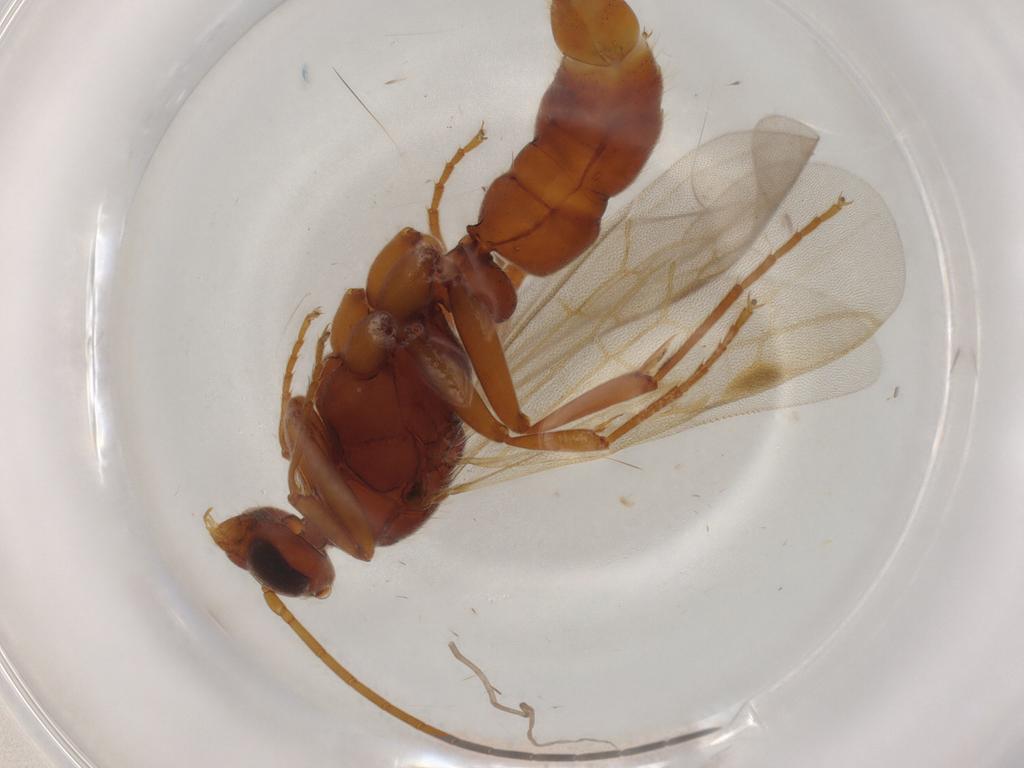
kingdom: Animalia
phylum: Arthropoda
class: Insecta
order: Hymenoptera
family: Formicidae
